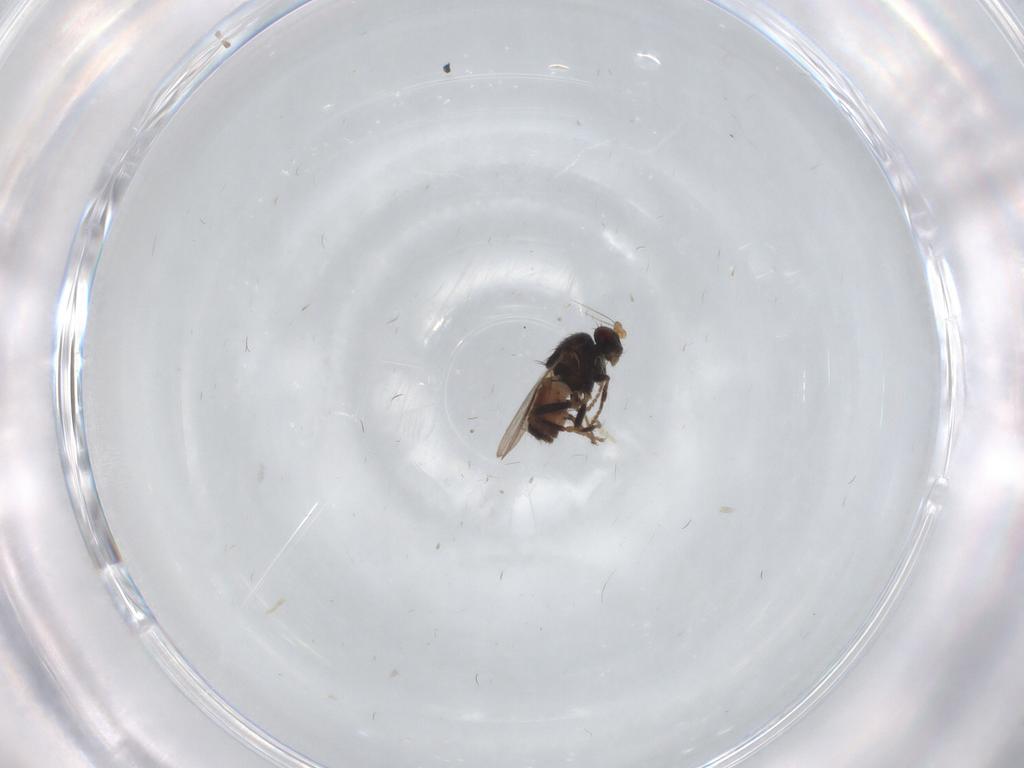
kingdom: Animalia
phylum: Arthropoda
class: Insecta
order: Diptera
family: Sphaeroceridae
